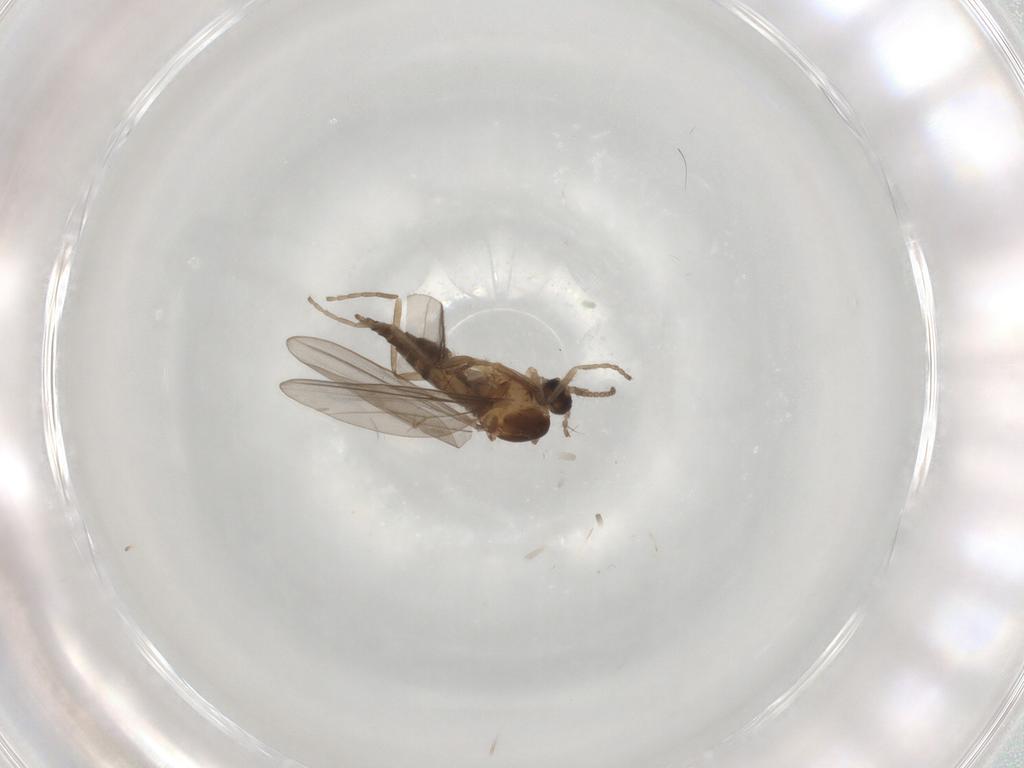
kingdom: Animalia
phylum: Arthropoda
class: Insecta
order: Diptera
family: Cecidomyiidae
